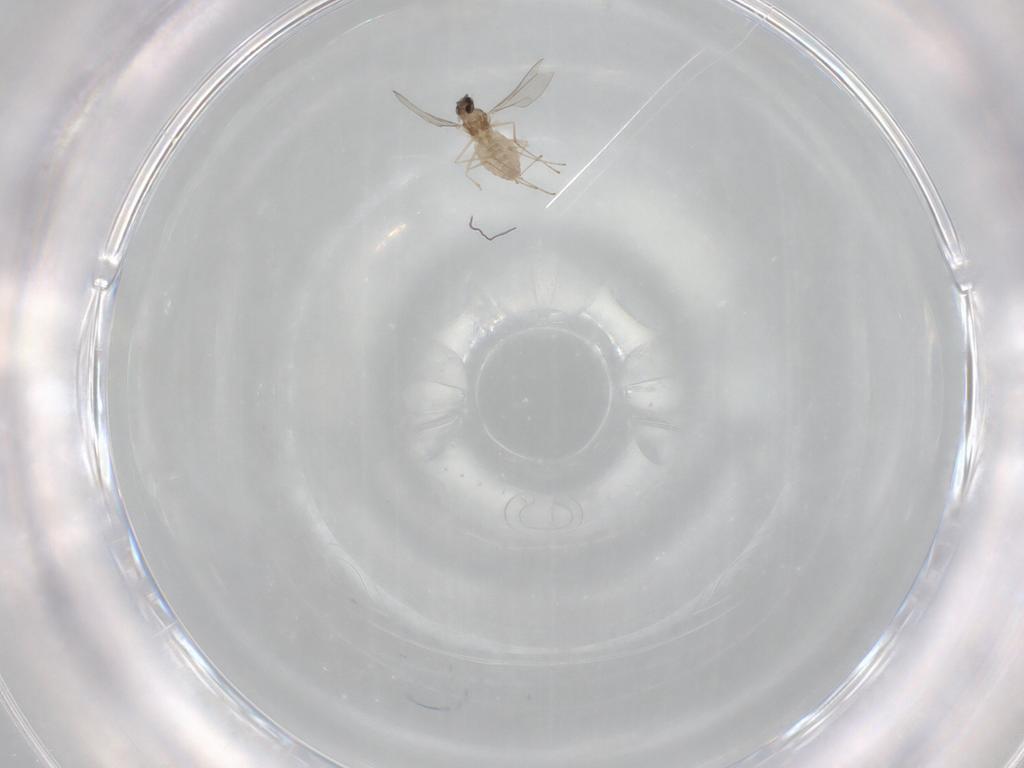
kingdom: Animalia
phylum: Arthropoda
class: Insecta
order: Diptera
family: Cecidomyiidae
